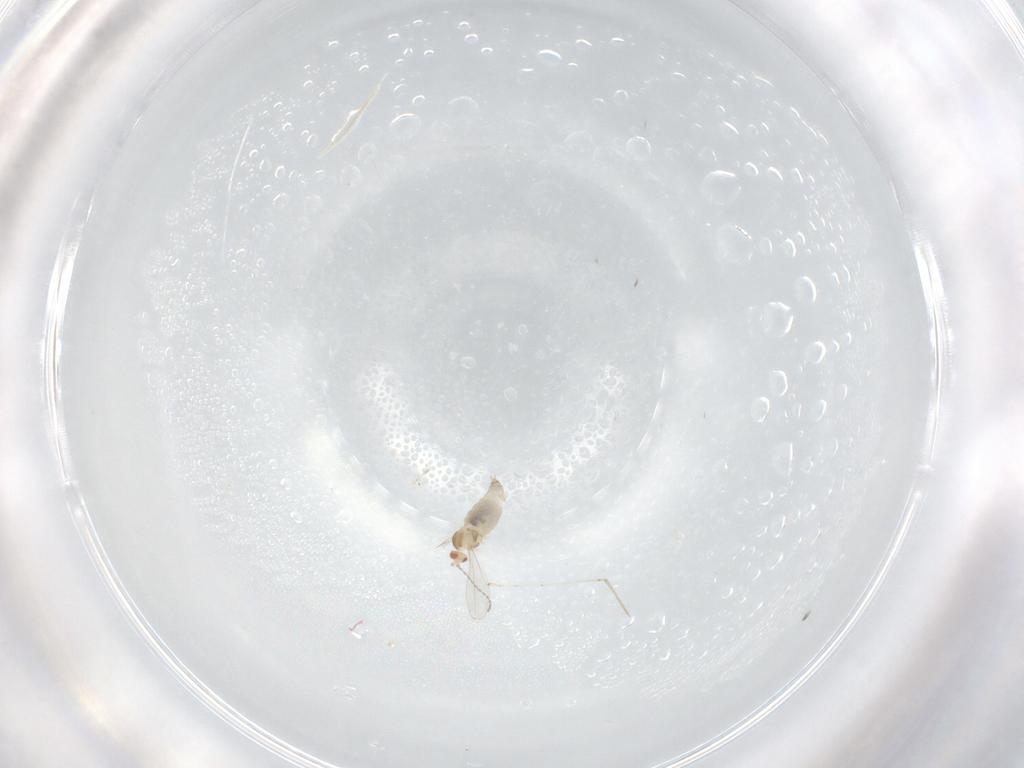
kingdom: Animalia
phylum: Arthropoda
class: Insecta
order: Diptera
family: Cecidomyiidae
